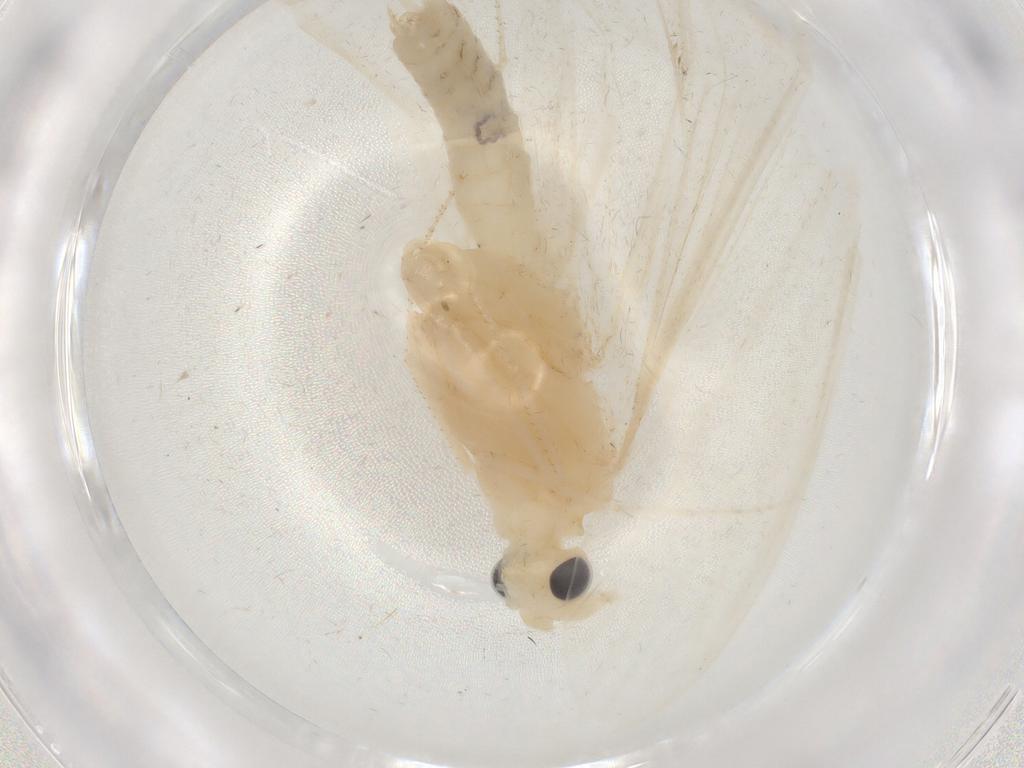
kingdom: Animalia
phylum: Arthropoda
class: Insecta
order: Trichoptera
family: Leptoceridae
